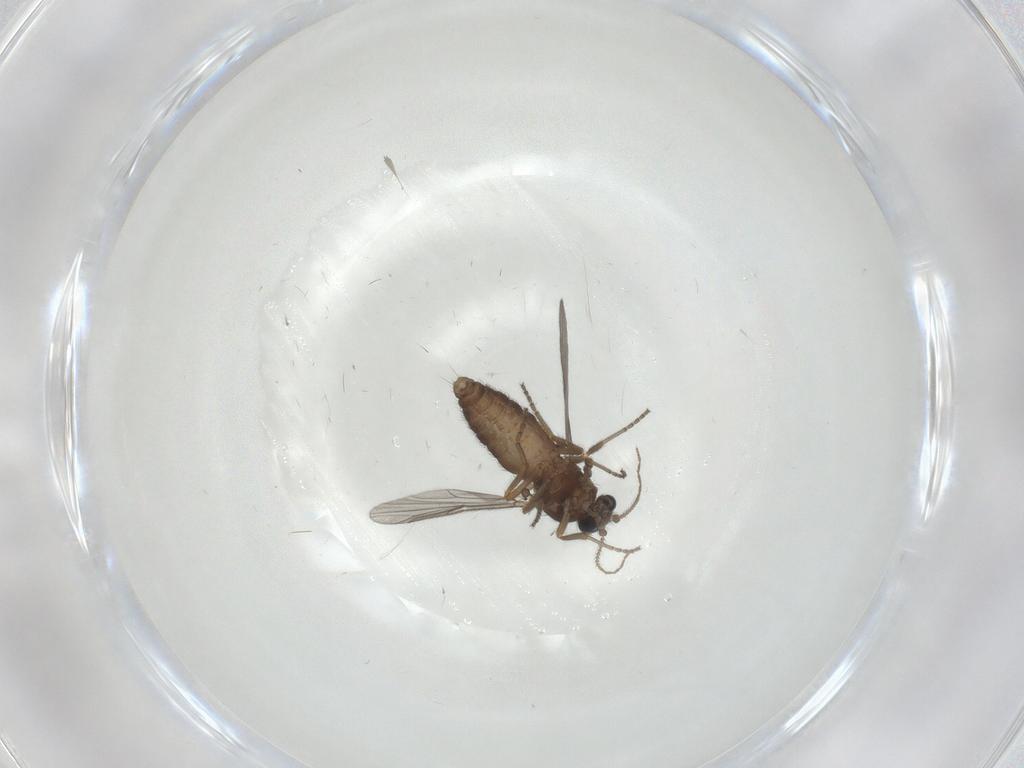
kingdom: Animalia
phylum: Arthropoda
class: Insecta
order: Diptera
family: Ceratopogonidae
